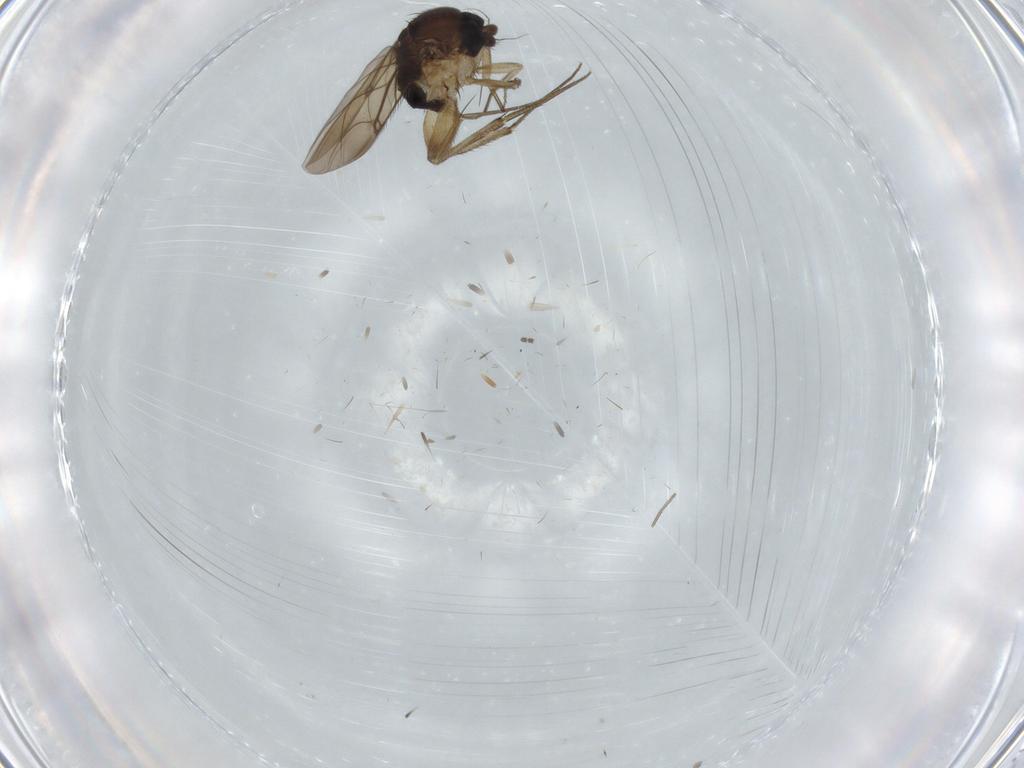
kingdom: Animalia
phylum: Arthropoda
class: Insecta
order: Diptera
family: Phoridae
